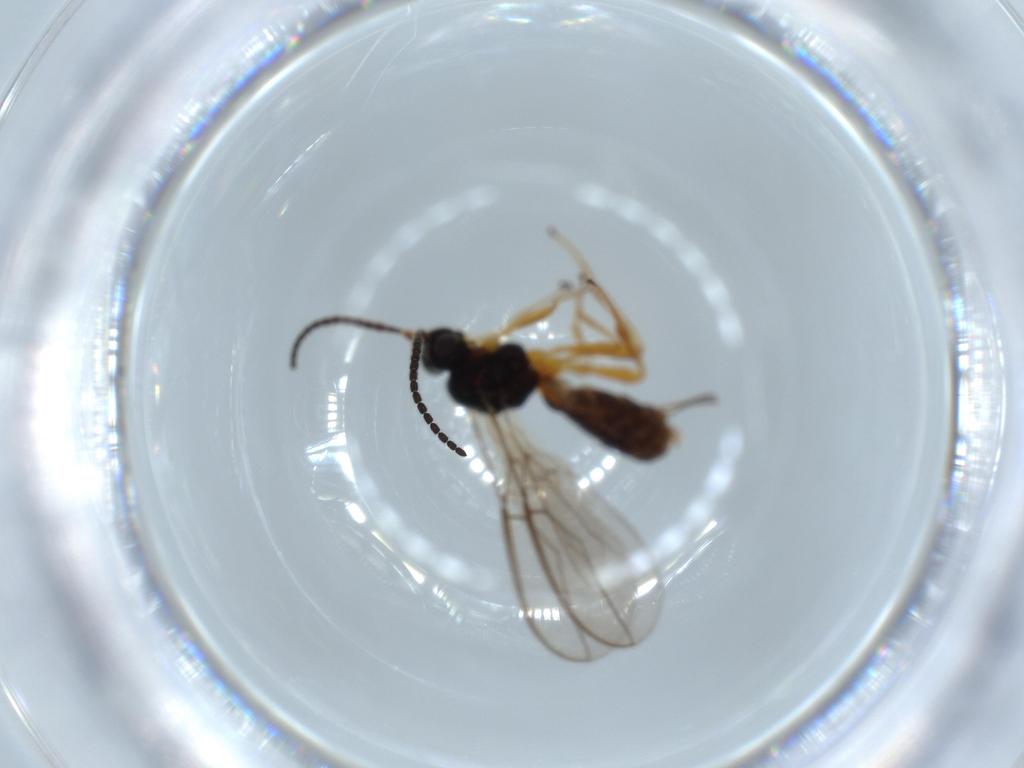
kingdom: Animalia
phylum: Arthropoda
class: Insecta
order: Hymenoptera
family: Braconidae
